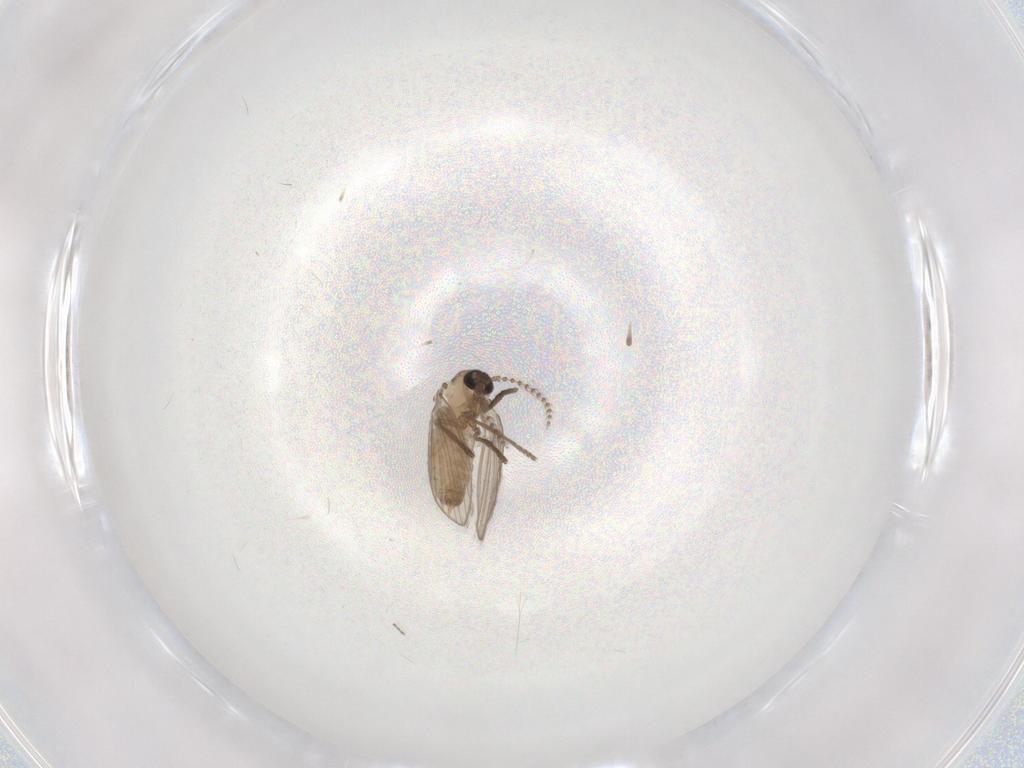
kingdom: Animalia
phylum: Arthropoda
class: Insecta
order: Diptera
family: Psychodidae
